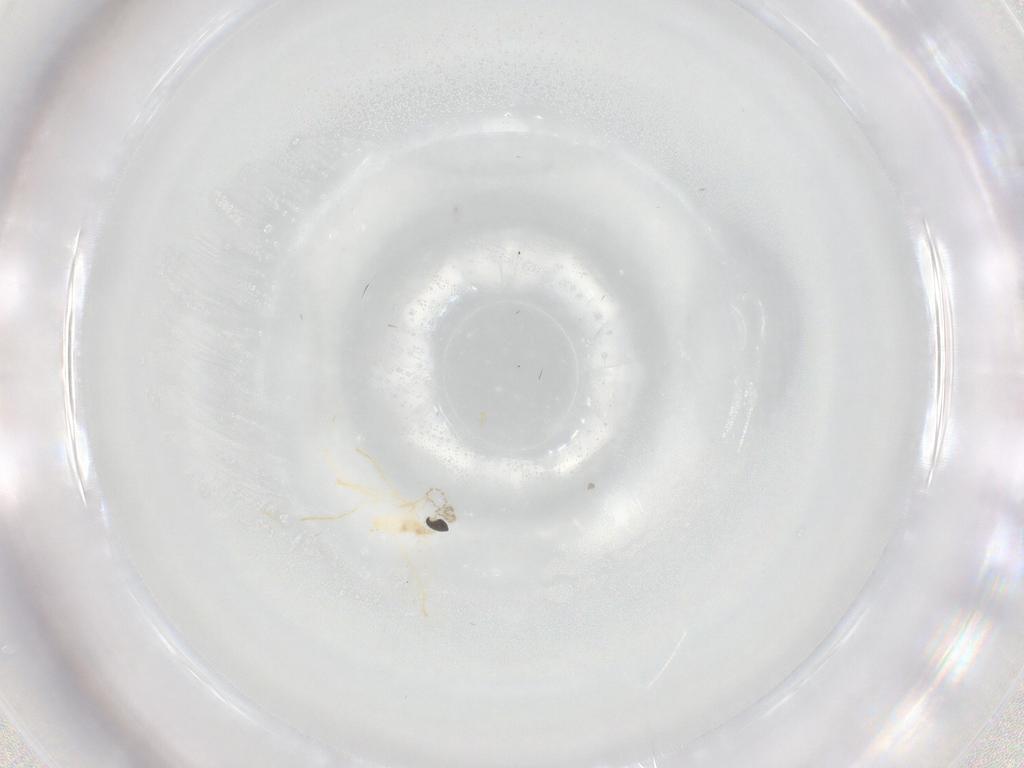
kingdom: Animalia
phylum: Arthropoda
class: Insecta
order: Diptera
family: Cecidomyiidae
